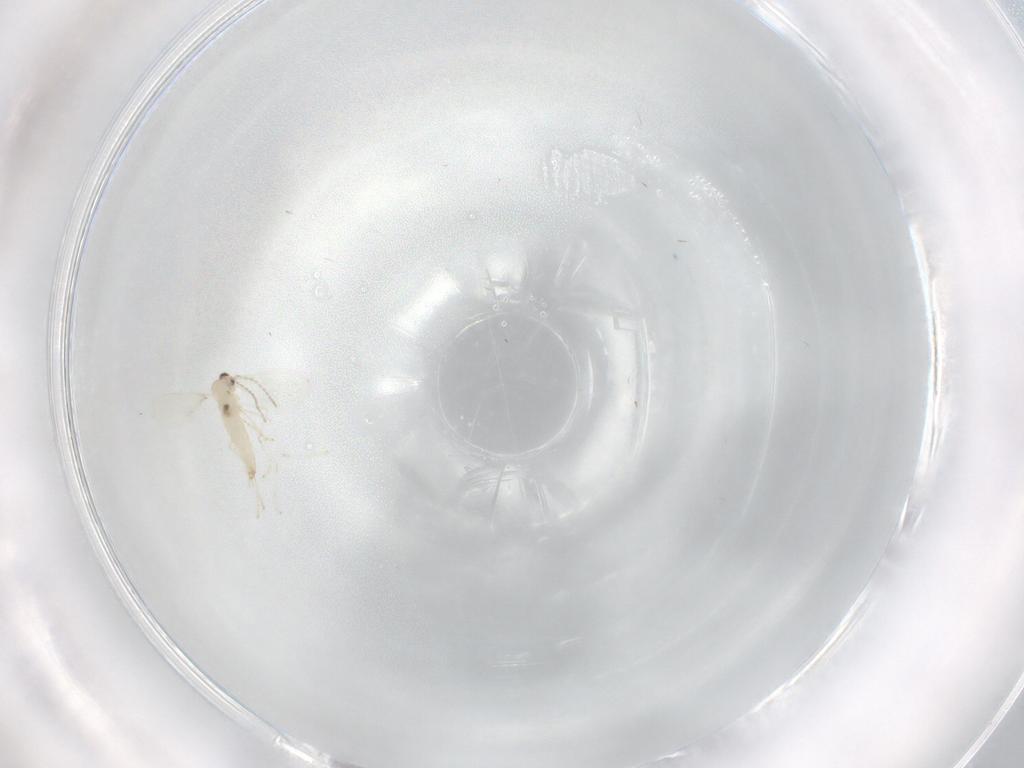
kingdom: Animalia
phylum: Arthropoda
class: Insecta
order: Diptera
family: Cecidomyiidae
